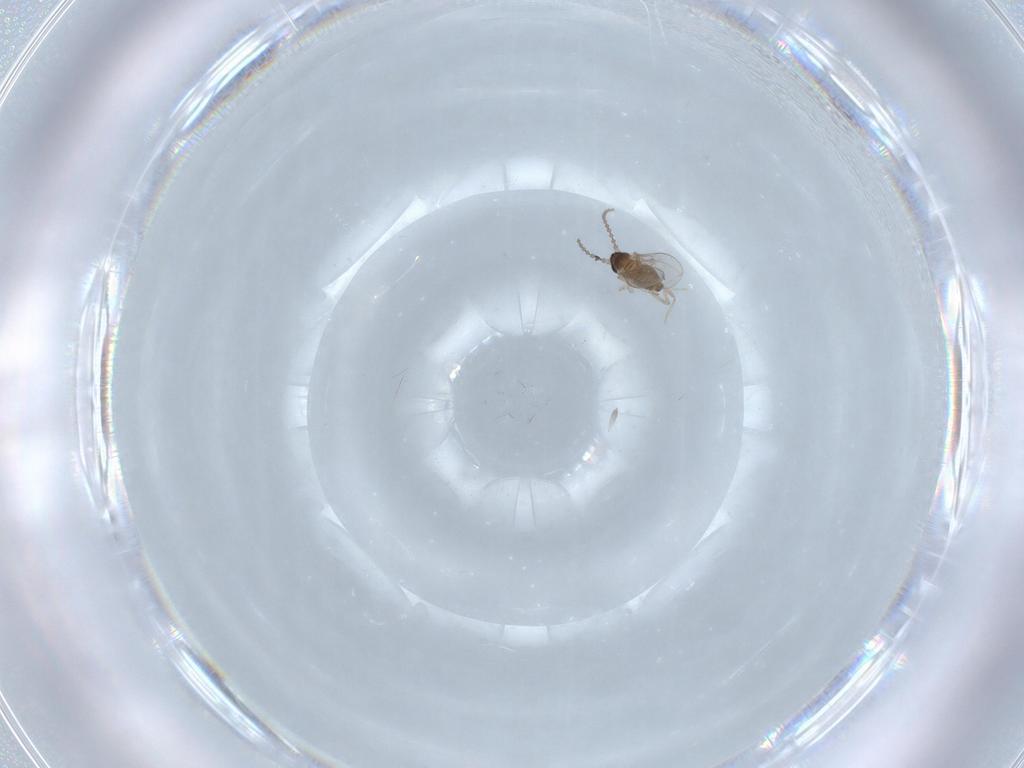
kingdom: Animalia
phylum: Arthropoda
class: Insecta
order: Diptera
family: Cecidomyiidae
